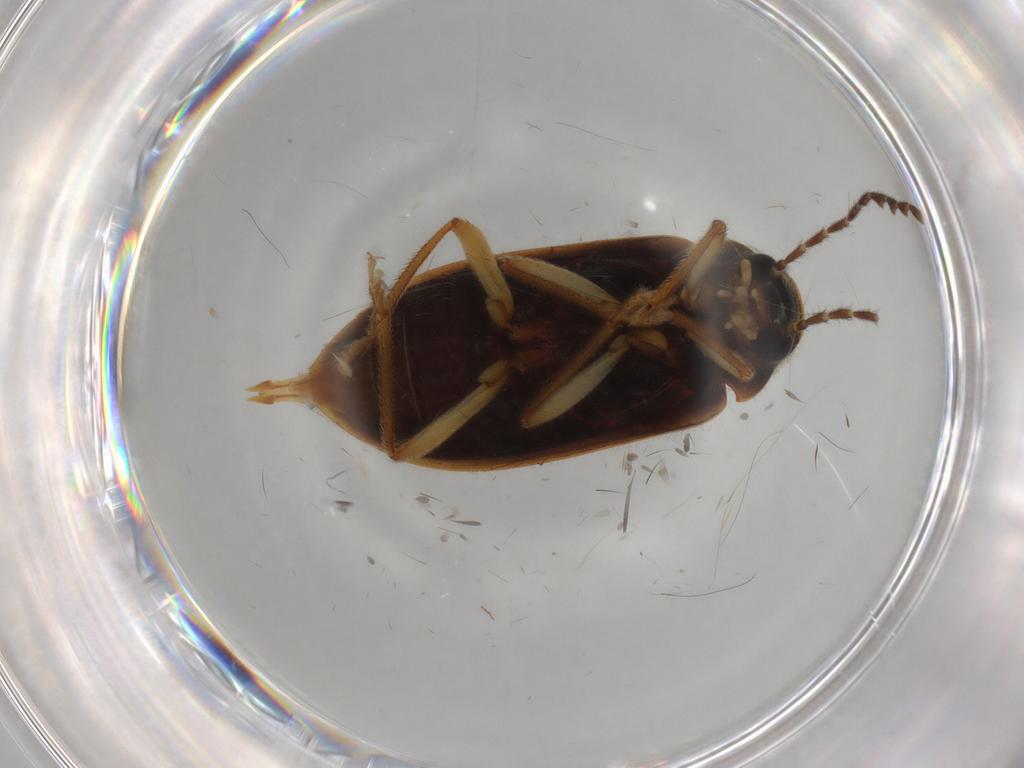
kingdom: Animalia
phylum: Arthropoda
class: Insecta
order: Coleoptera
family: Ptilodactylidae
